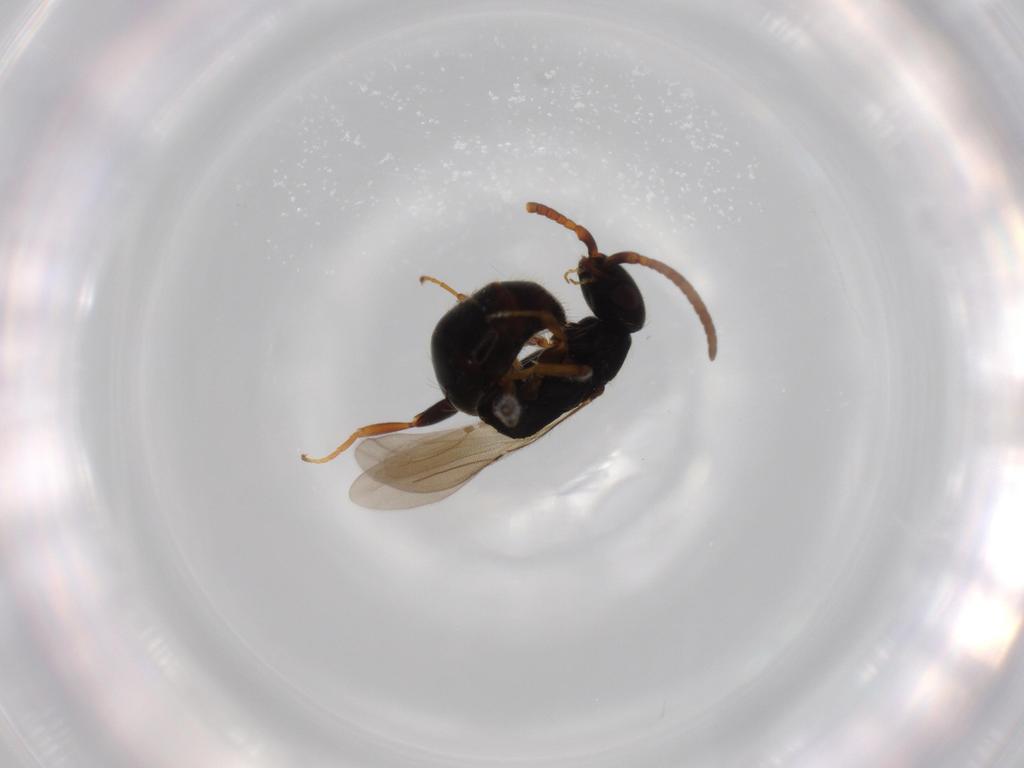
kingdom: Animalia
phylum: Arthropoda
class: Insecta
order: Hymenoptera
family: Bethylidae
